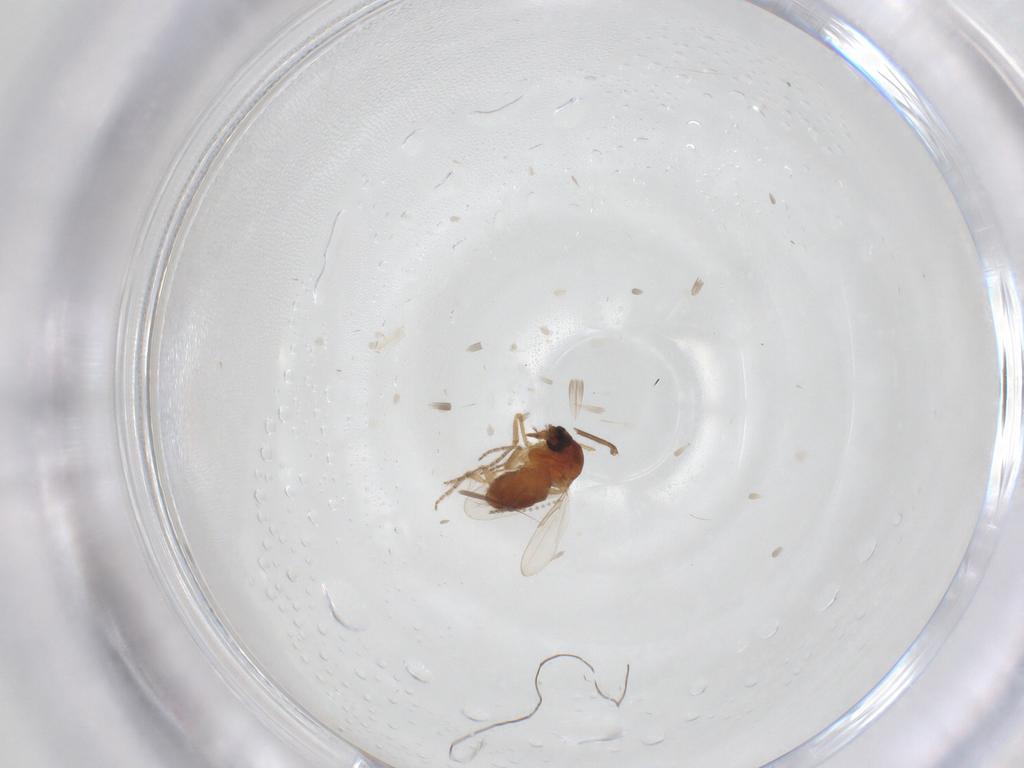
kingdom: Animalia
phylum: Arthropoda
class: Insecta
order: Diptera
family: Ceratopogonidae
